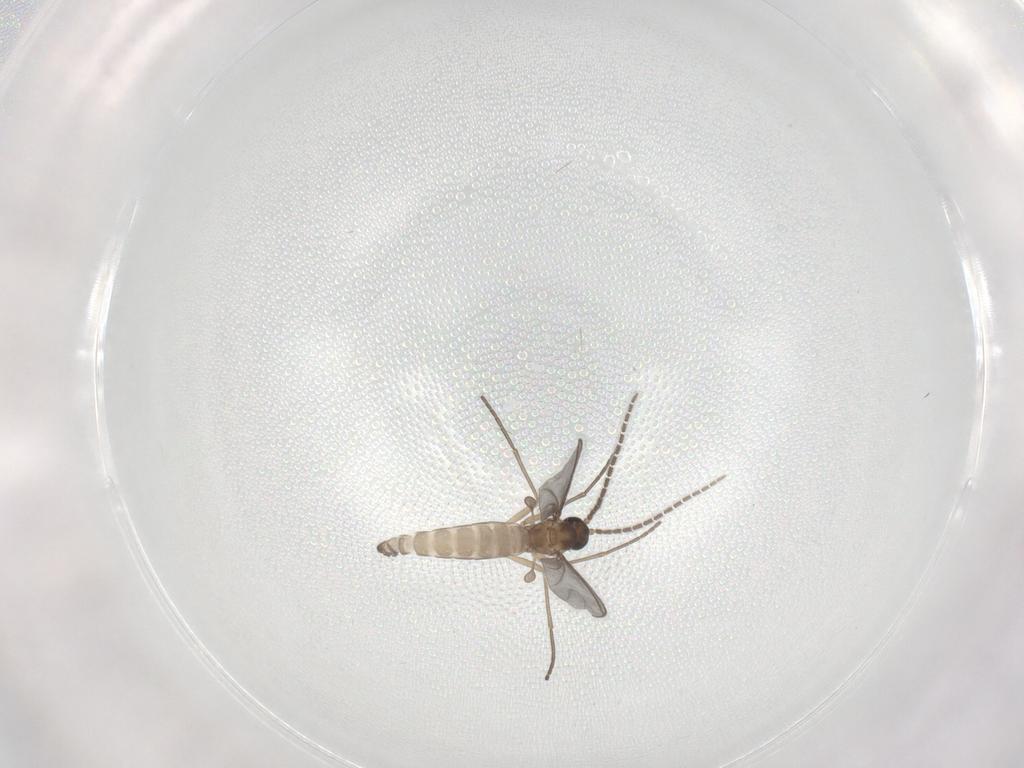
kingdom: Animalia
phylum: Arthropoda
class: Insecta
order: Diptera
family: Sciaridae
